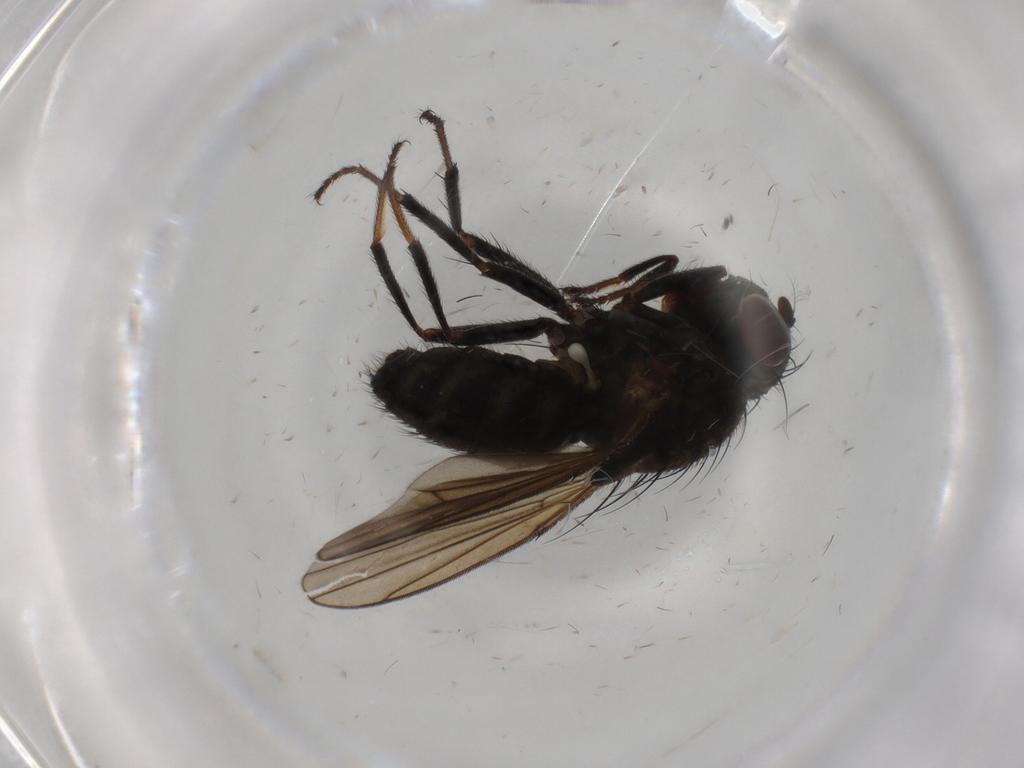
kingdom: Animalia
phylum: Arthropoda
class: Insecta
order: Diptera
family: Ephydridae
